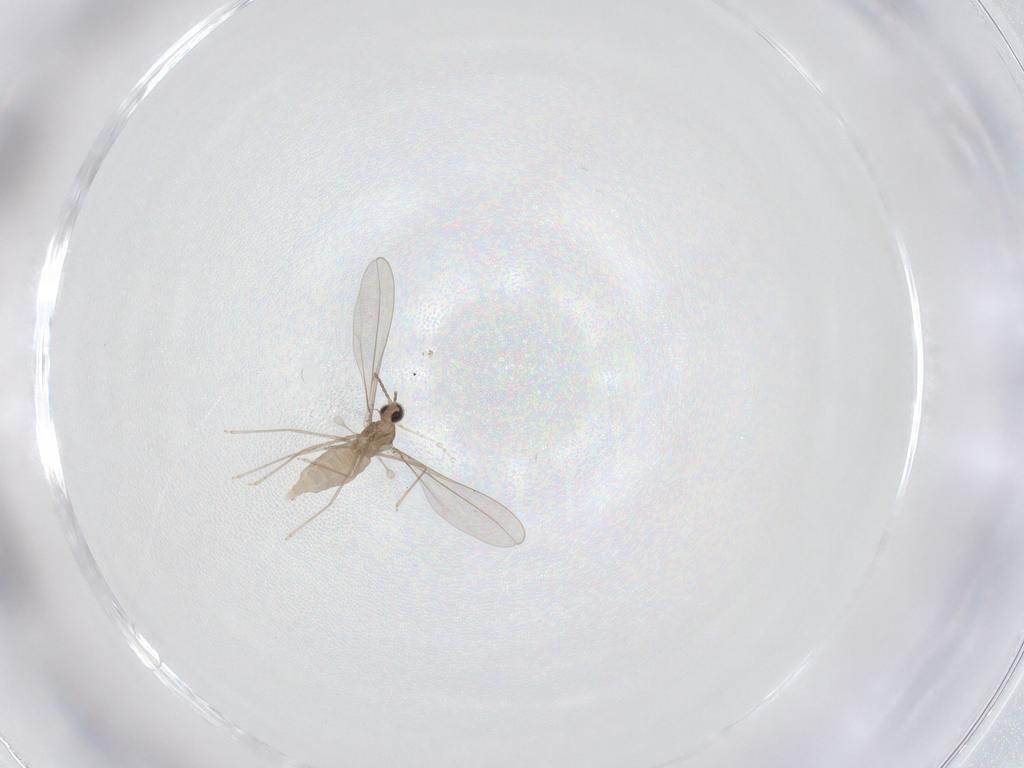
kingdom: Animalia
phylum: Arthropoda
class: Insecta
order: Diptera
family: Cecidomyiidae
